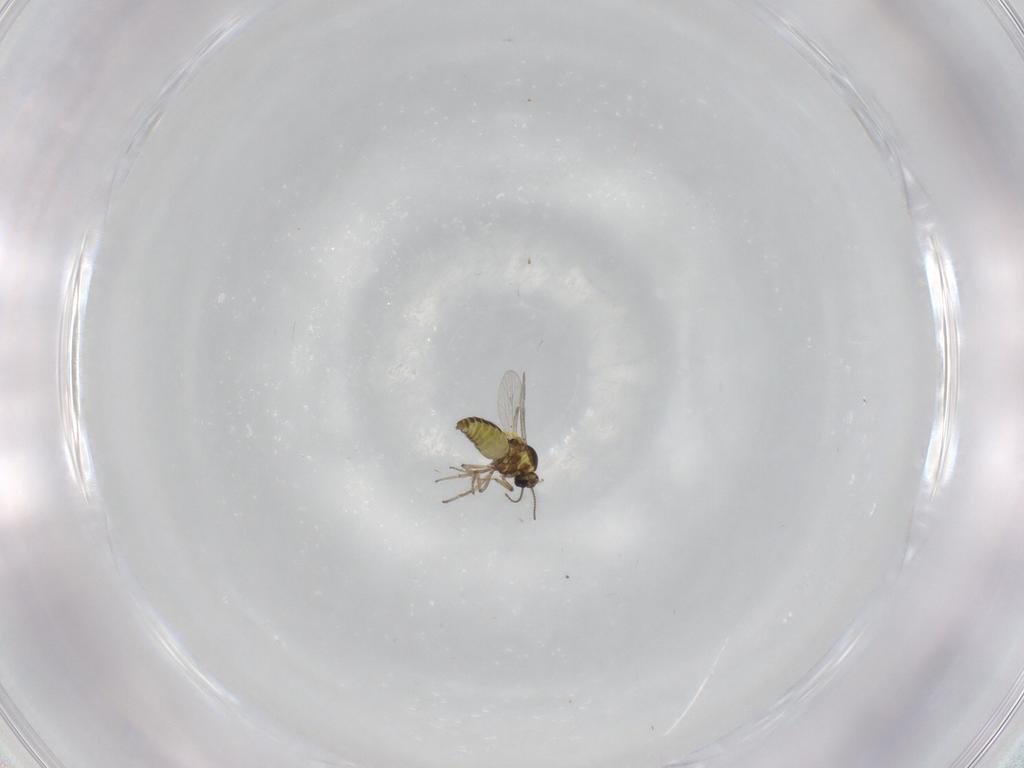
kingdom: Animalia
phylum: Arthropoda
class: Insecta
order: Diptera
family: Ceratopogonidae
